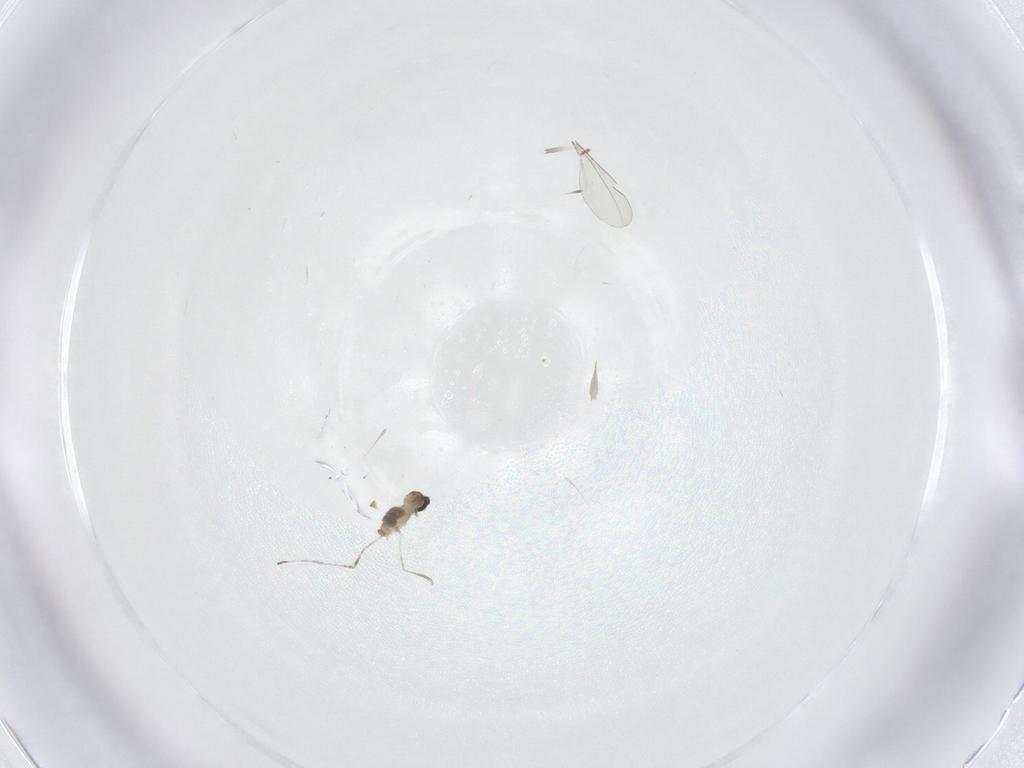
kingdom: Animalia
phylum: Arthropoda
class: Insecta
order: Diptera
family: Cecidomyiidae
